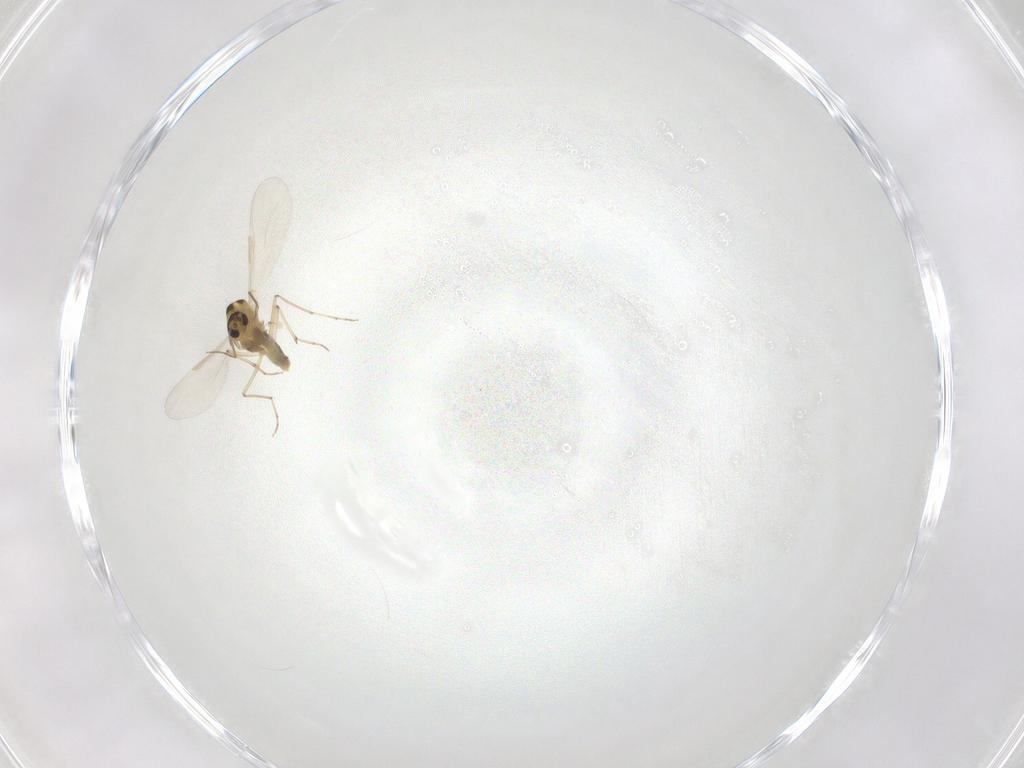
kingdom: Animalia
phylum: Arthropoda
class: Insecta
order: Diptera
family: Chironomidae
